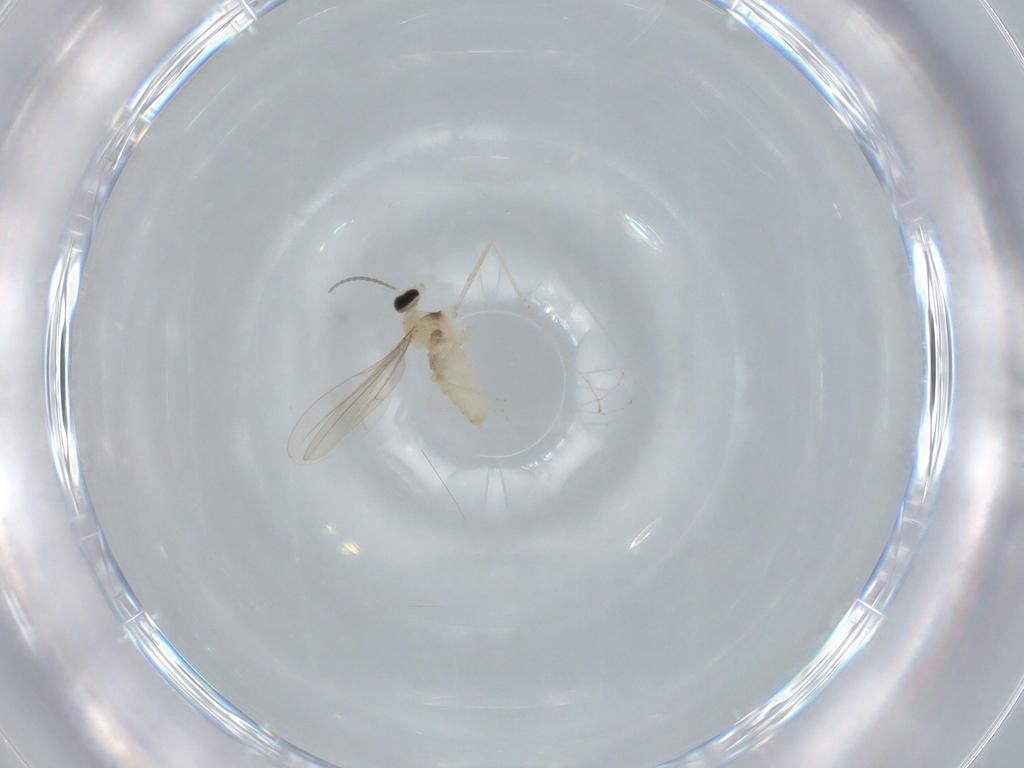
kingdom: Animalia
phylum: Arthropoda
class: Insecta
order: Diptera
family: Cecidomyiidae
